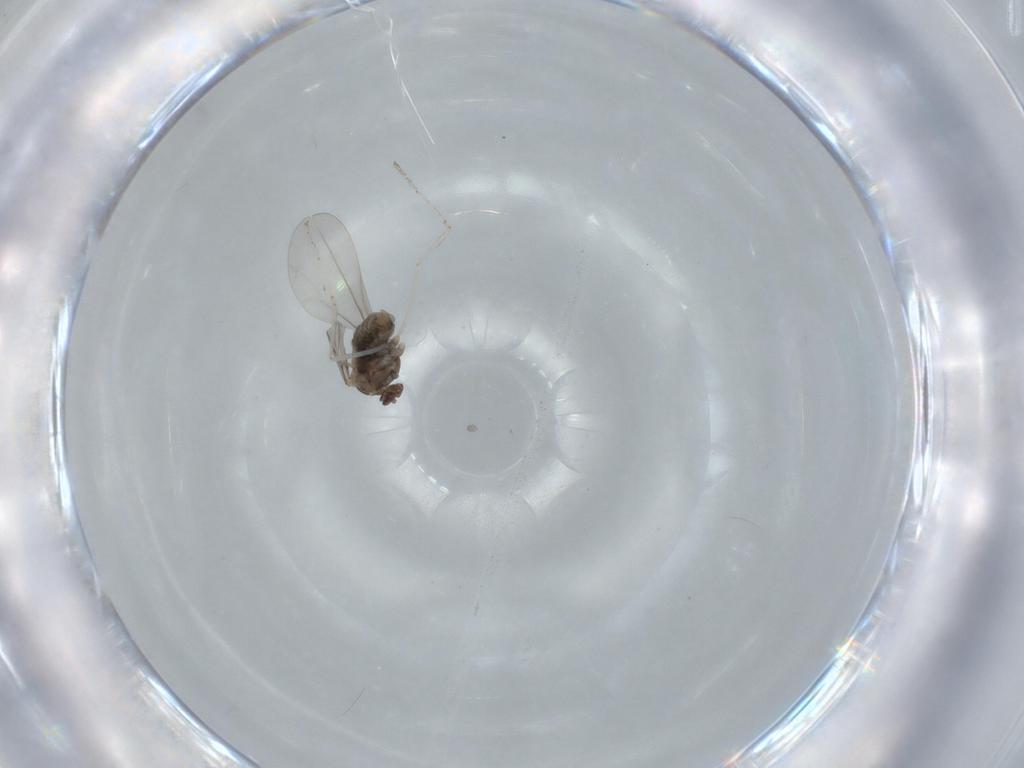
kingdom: Animalia
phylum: Arthropoda
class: Insecta
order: Diptera
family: Cecidomyiidae
